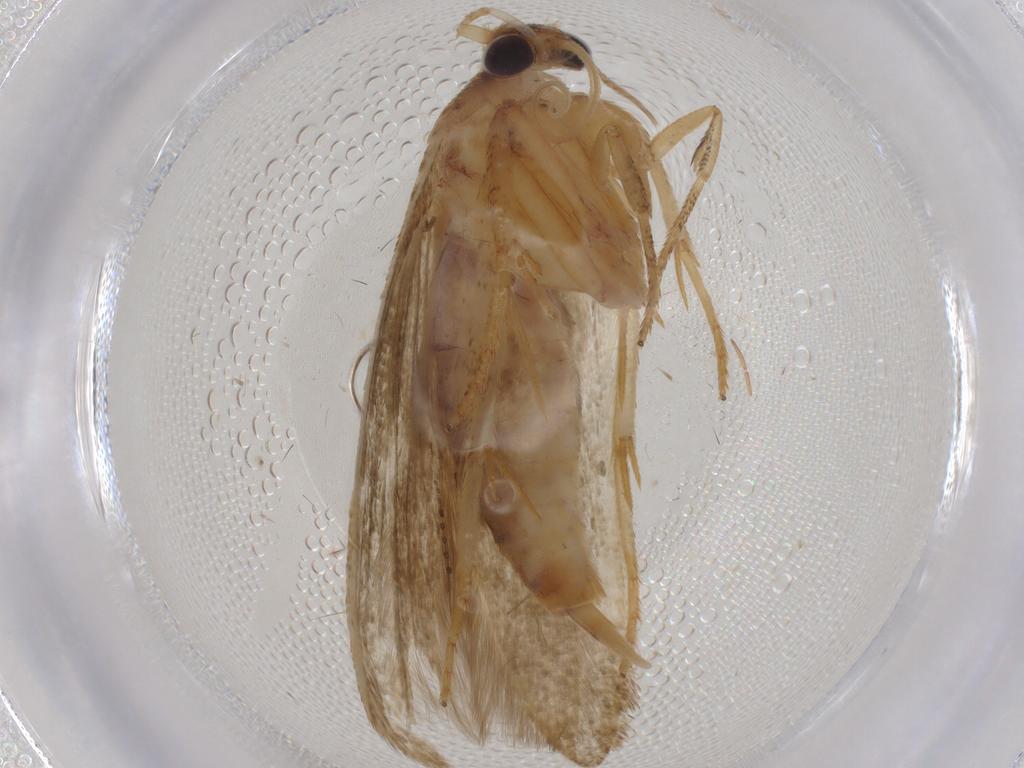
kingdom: Animalia
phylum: Arthropoda
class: Insecta
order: Lepidoptera
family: Blastobasidae
